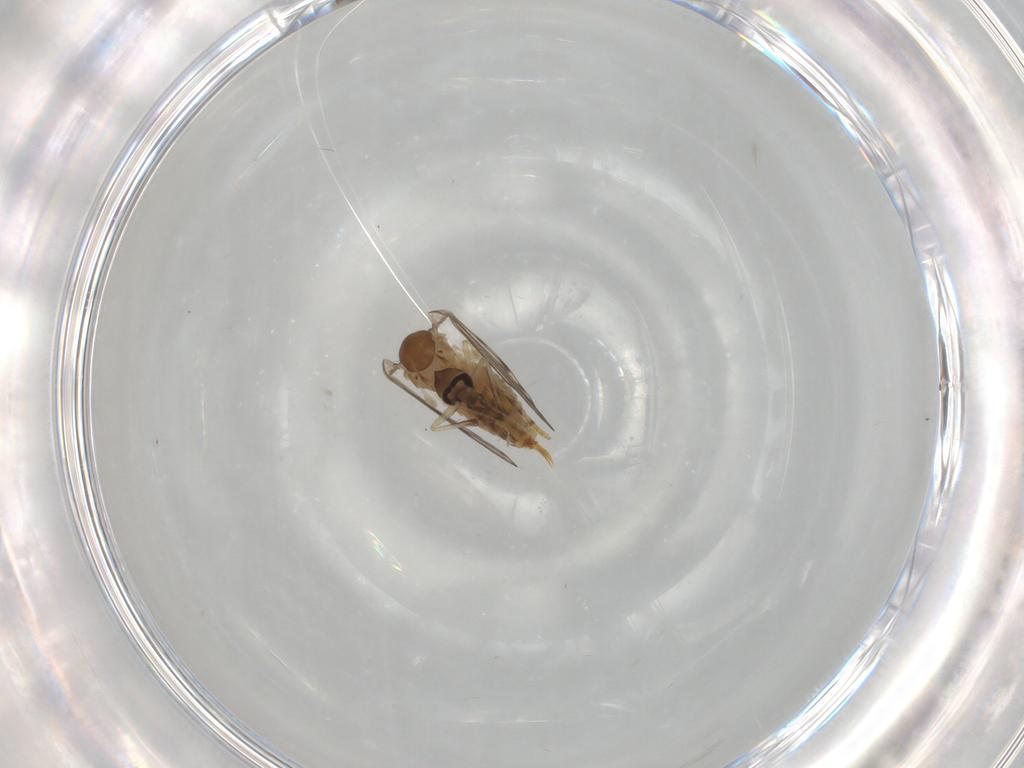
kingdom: Animalia
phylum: Arthropoda
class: Insecta
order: Diptera
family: Psychodidae
